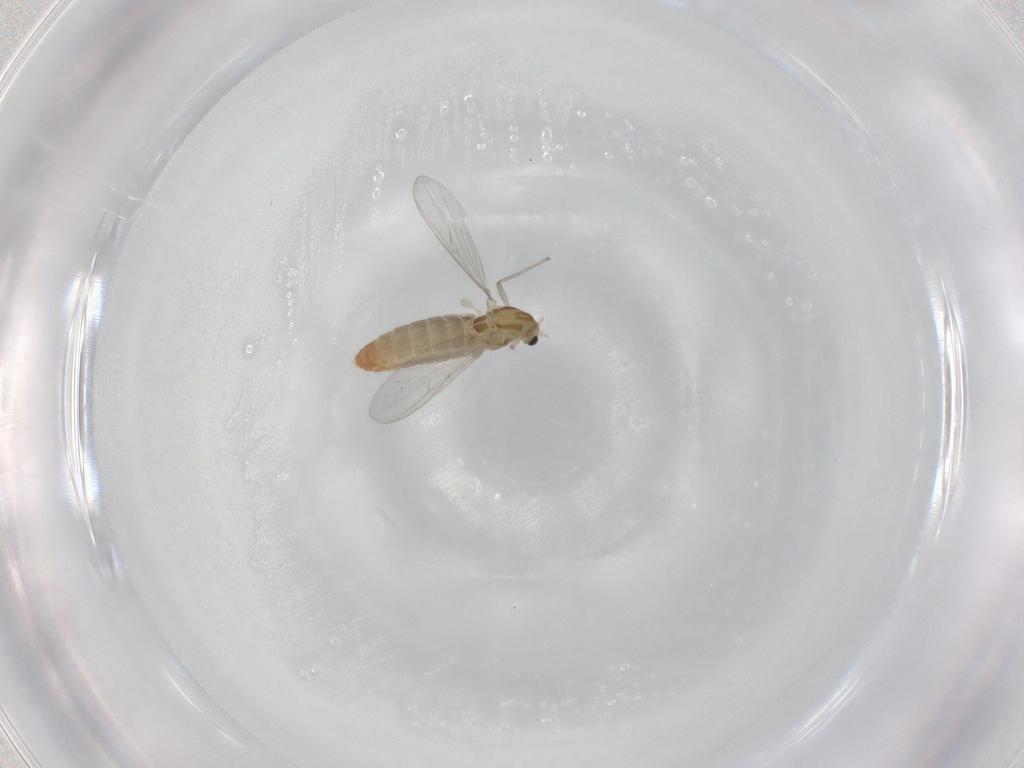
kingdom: Animalia
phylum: Arthropoda
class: Insecta
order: Diptera
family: Chironomidae
